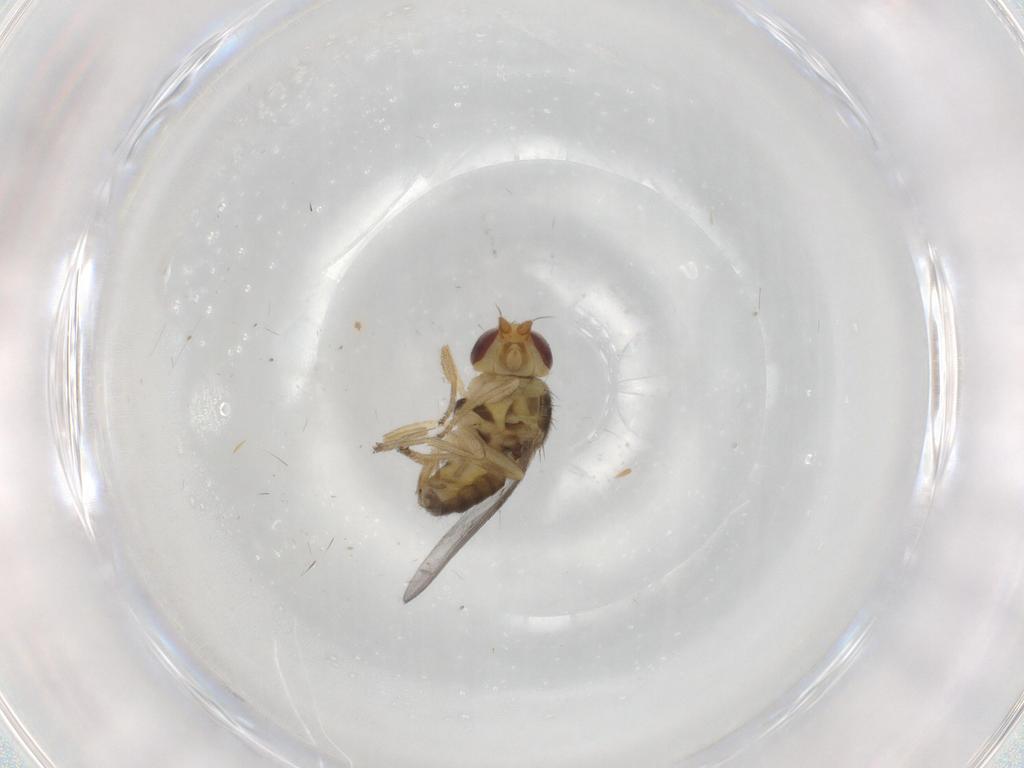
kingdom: Animalia
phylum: Arthropoda
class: Insecta
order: Diptera
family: Chloropidae
